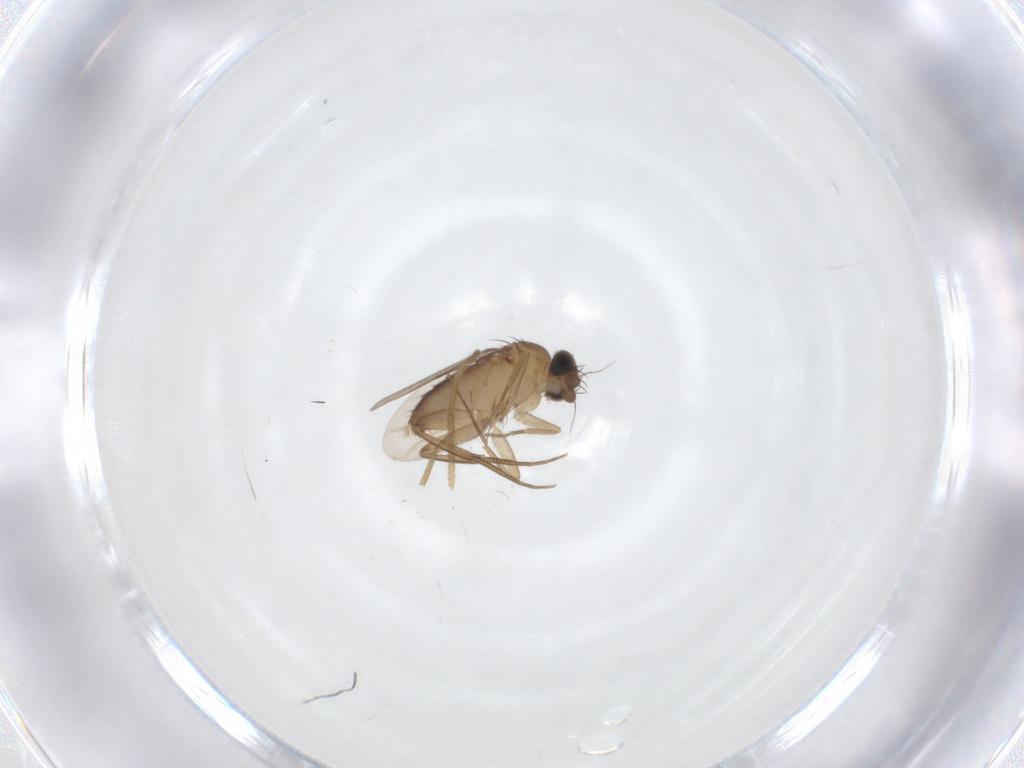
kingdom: Animalia
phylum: Arthropoda
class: Insecta
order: Diptera
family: Phoridae
